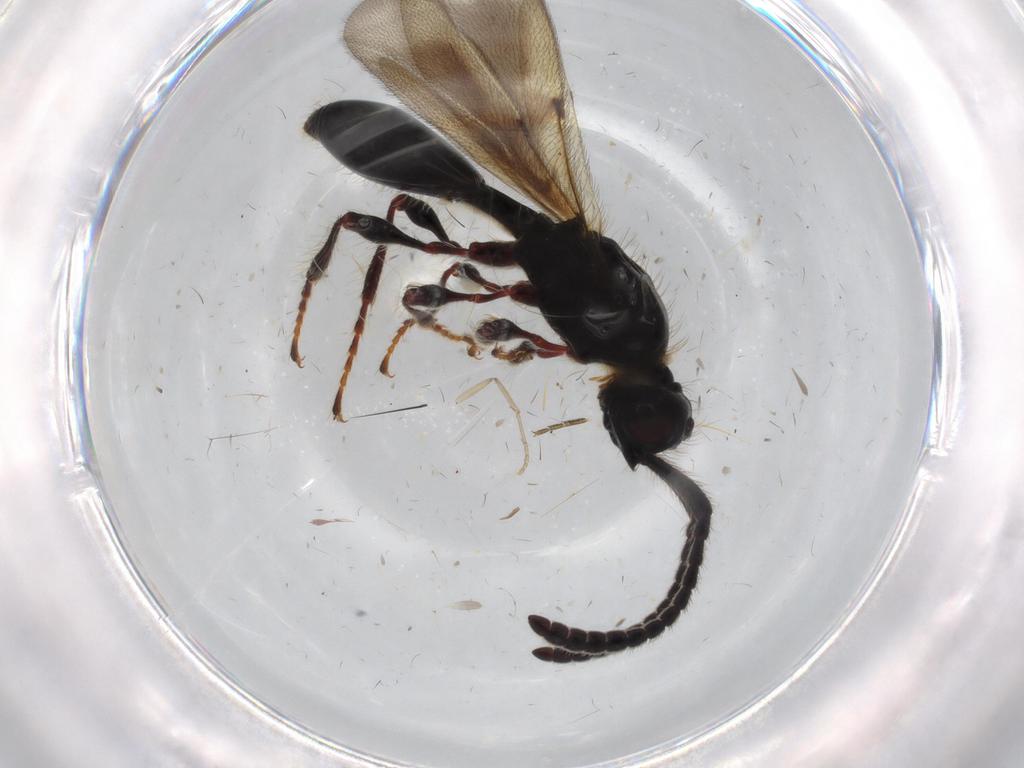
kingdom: Animalia
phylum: Arthropoda
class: Insecta
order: Hymenoptera
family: Diapriidae
